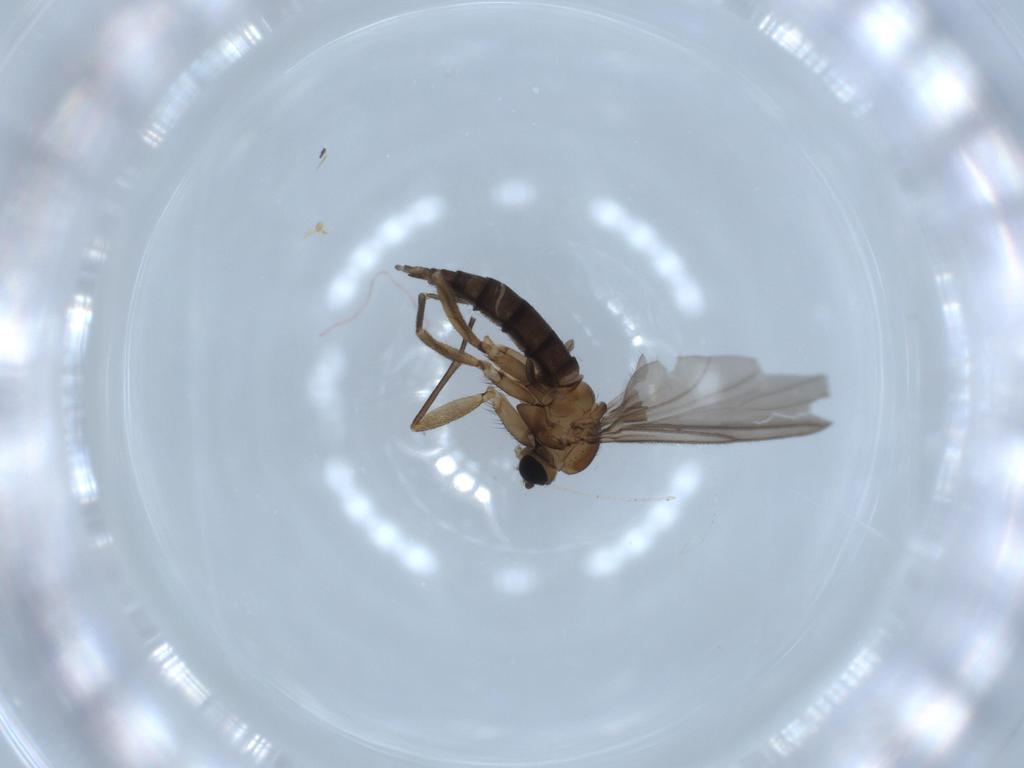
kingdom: Animalia
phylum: Arthropoda
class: Insecta
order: Diptera
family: Sciaridae
